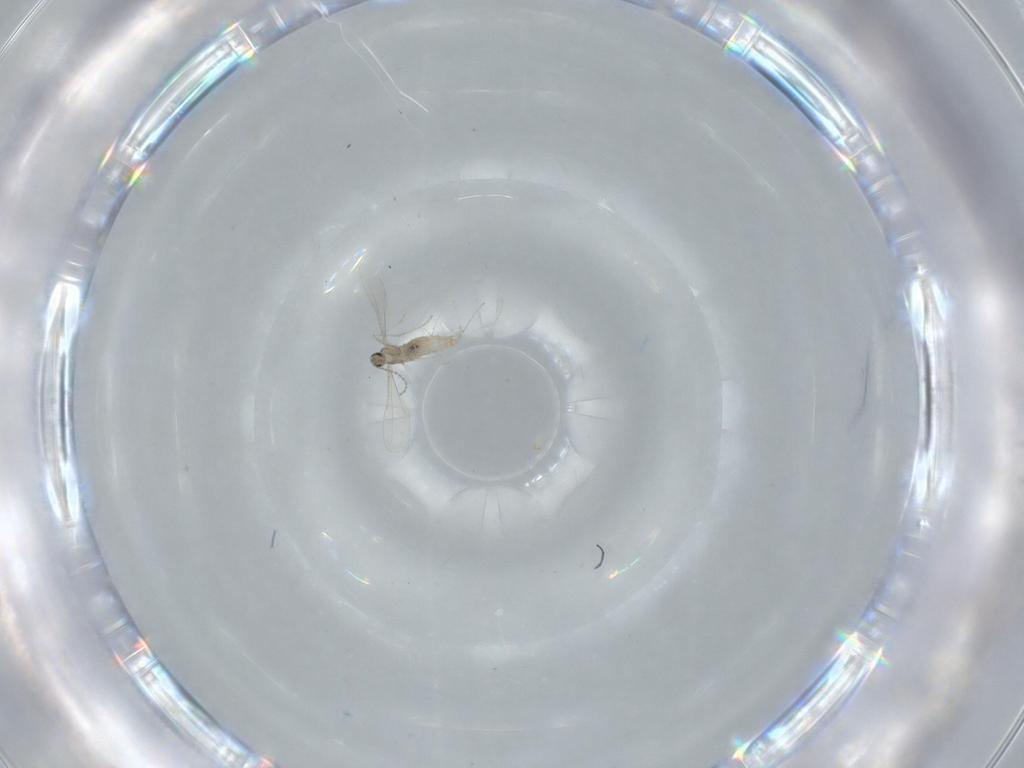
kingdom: Animalia
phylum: Arthropoda
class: Insecta
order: Diptera
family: Cecidomyiidae
